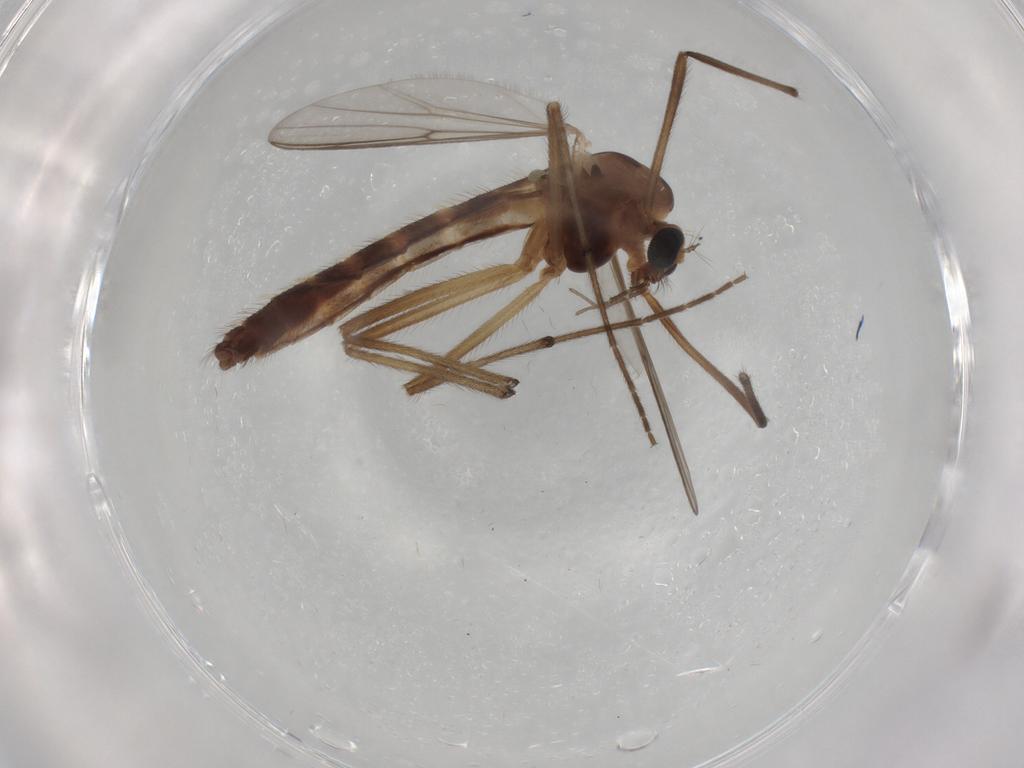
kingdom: Animalia
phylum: Arthropoda
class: Insecta
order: Diptera
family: Chironomidae
